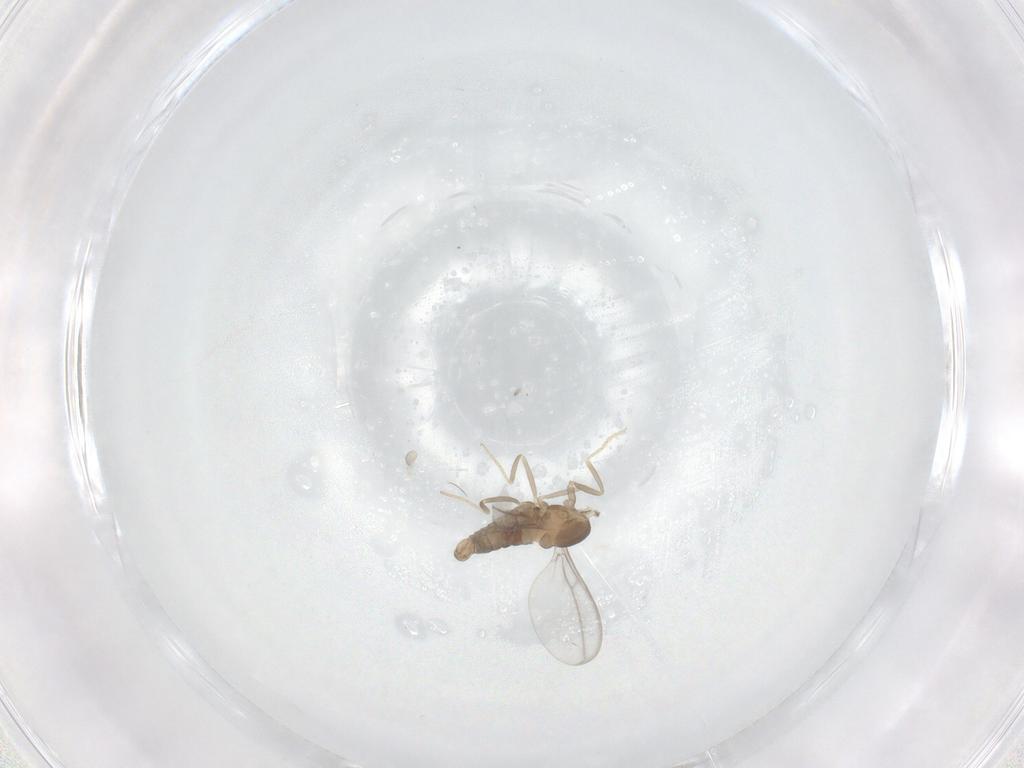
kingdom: Animalia
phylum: Arthropoda
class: Insecta
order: Diptera
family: Cecidomyiidae
